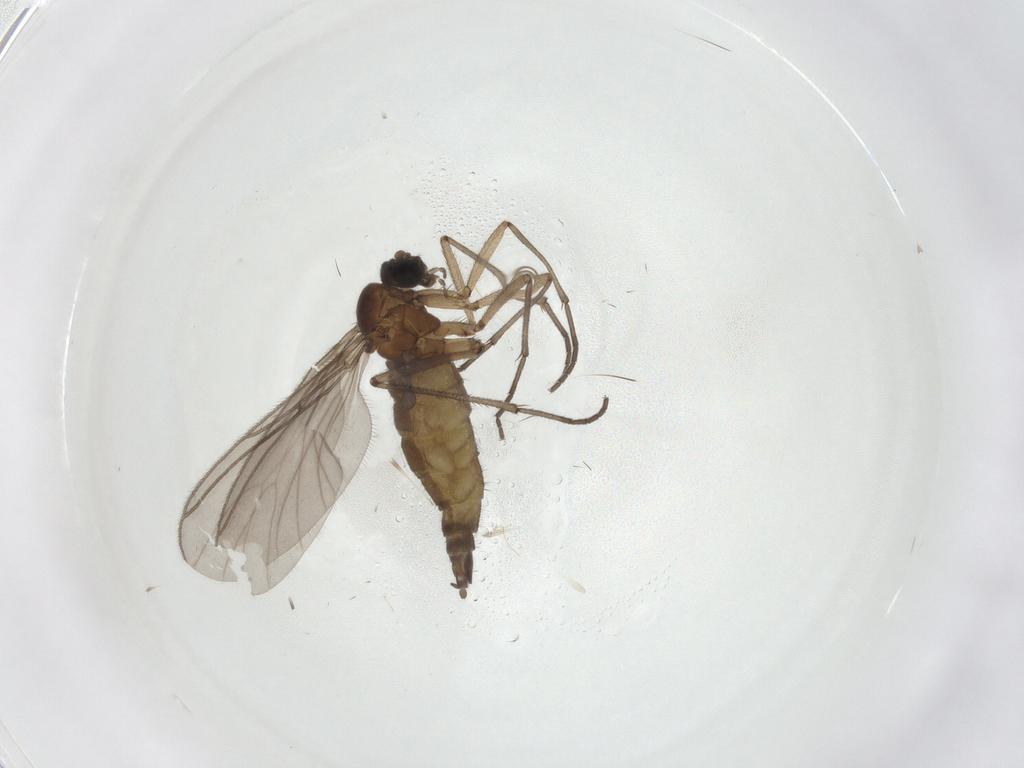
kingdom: Animalia
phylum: Arthropoda
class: Insecta
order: Diptera
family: Sciaridae
